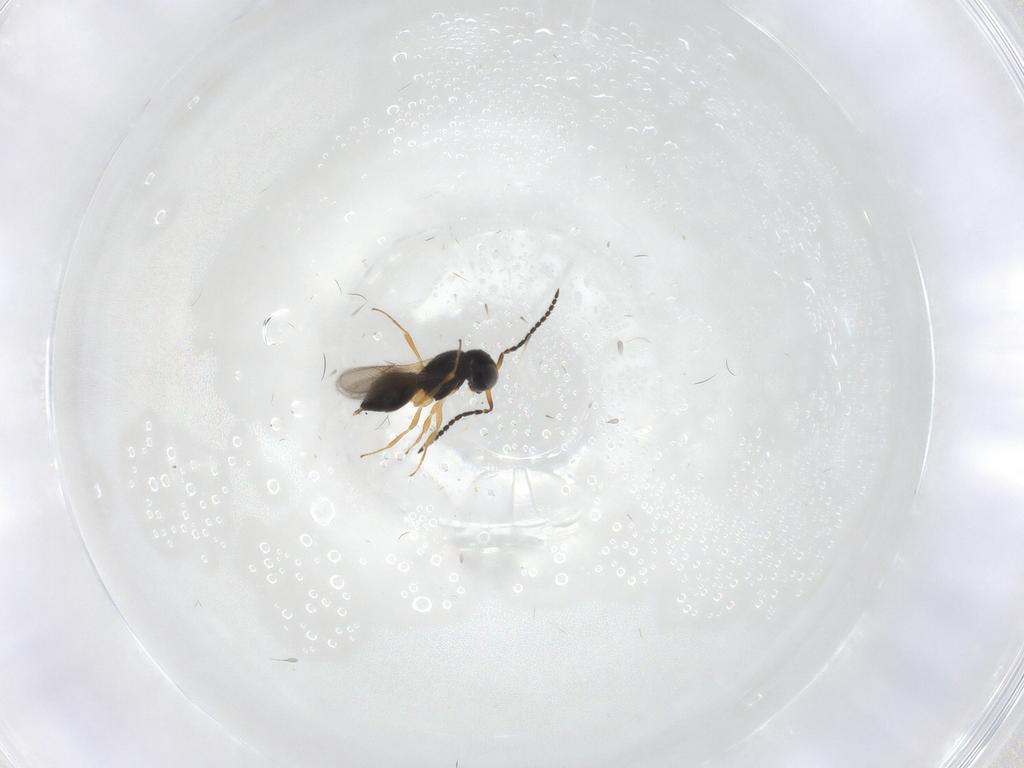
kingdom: Animalia
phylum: Arthropoda
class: Insecta
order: Hymenoptera
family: Scelionidae
